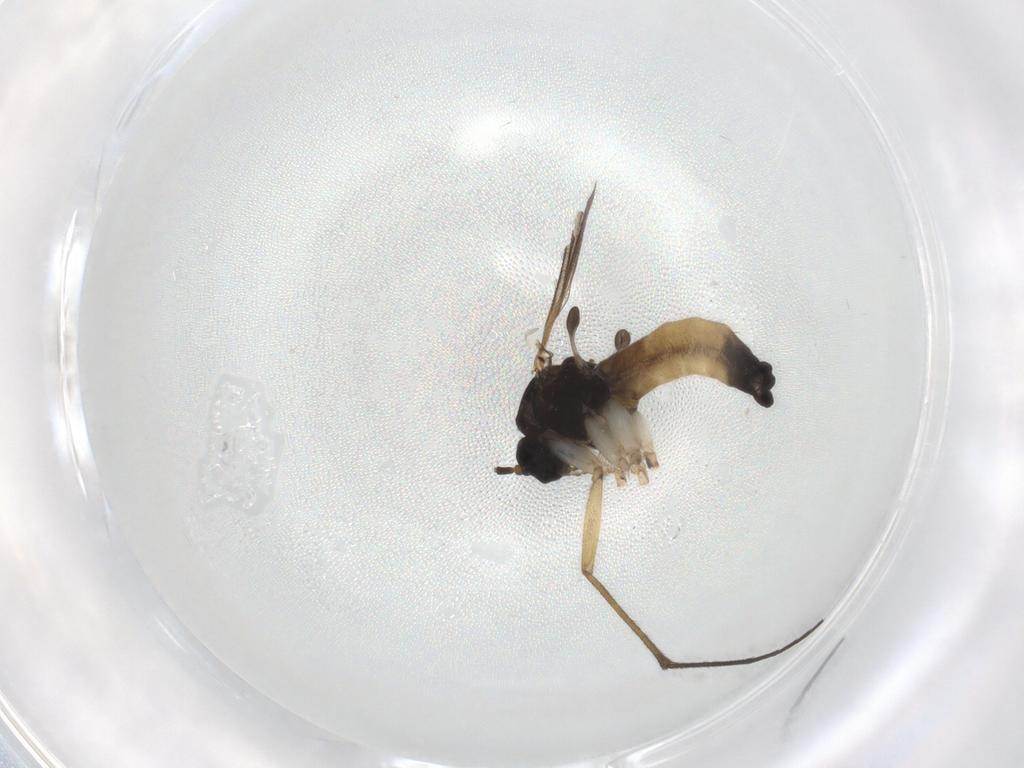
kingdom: Animalia
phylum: Arthropoda
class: Insecta
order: Diptera
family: Sciaridae
